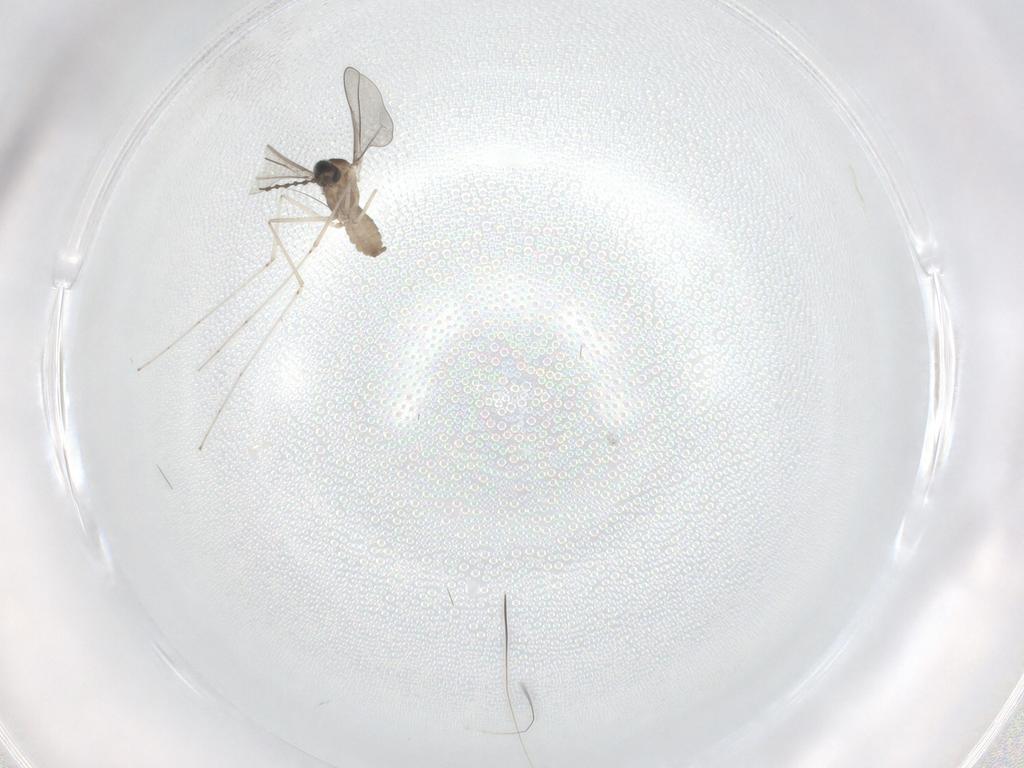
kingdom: Animalia
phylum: Arthropoda
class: Insecta
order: Diptera
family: Cecidomyiidae
